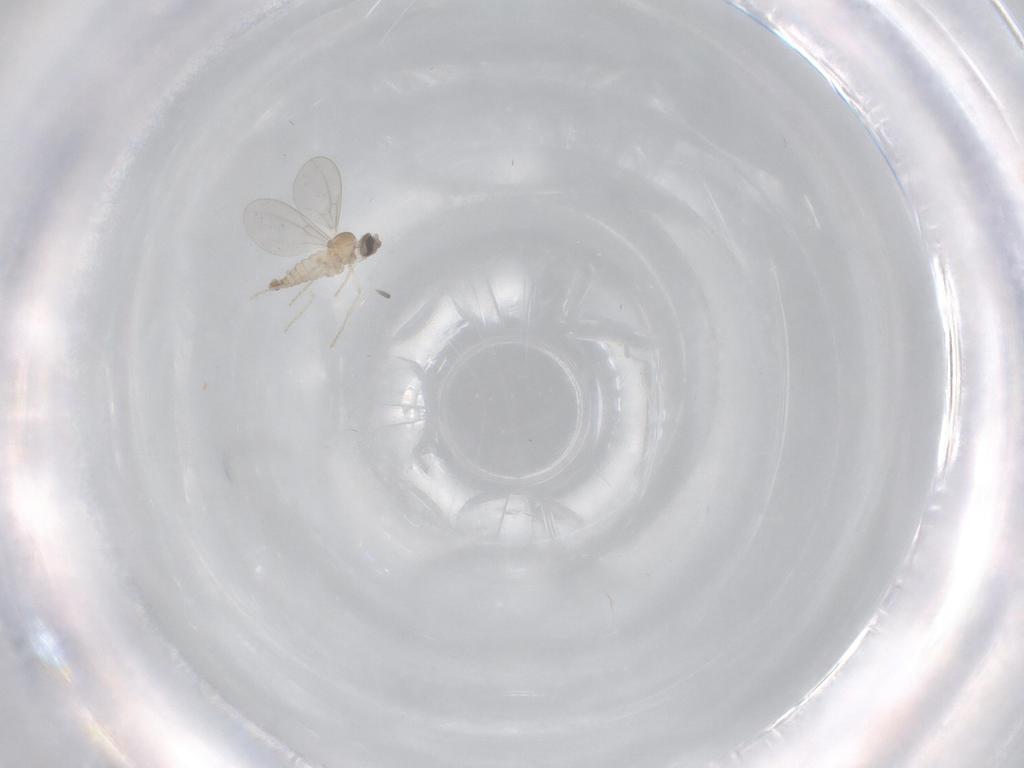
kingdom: Animalia
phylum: Arthropoda
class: Insecta
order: Diptera
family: Cecidomyiidae
